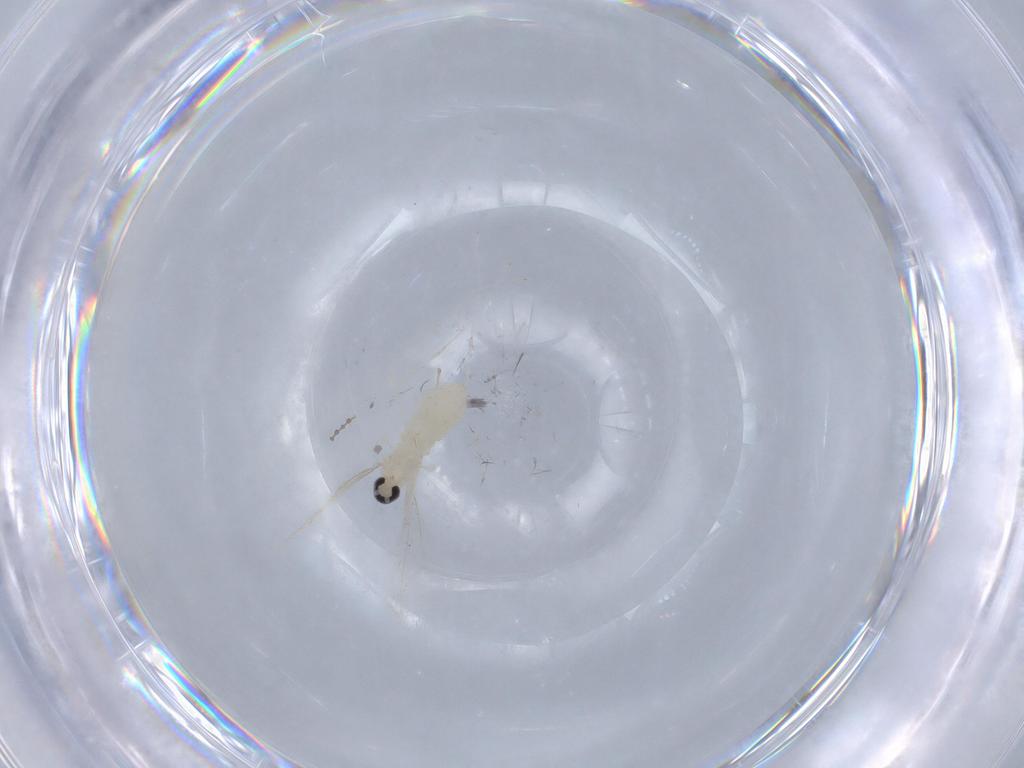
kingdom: Animalia
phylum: Arthropoda
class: Insecta
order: Diptera
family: Cecidomyiidae
